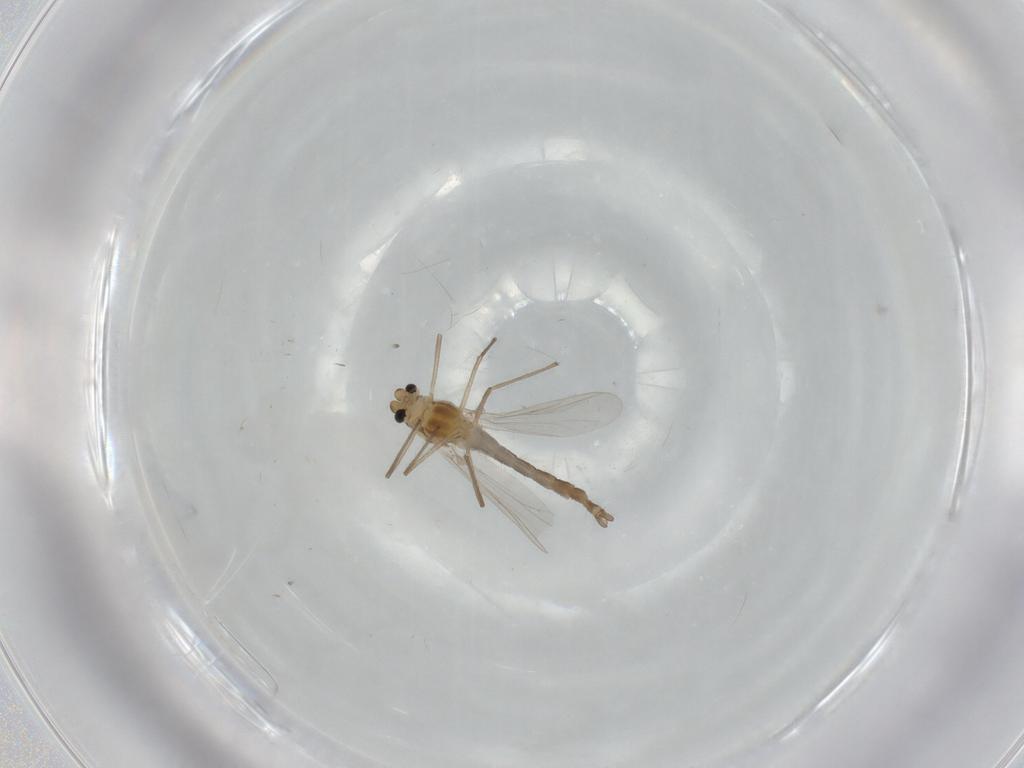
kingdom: Animalia
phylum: Arthropoda
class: Insecta
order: Diptera
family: Chironomidae
